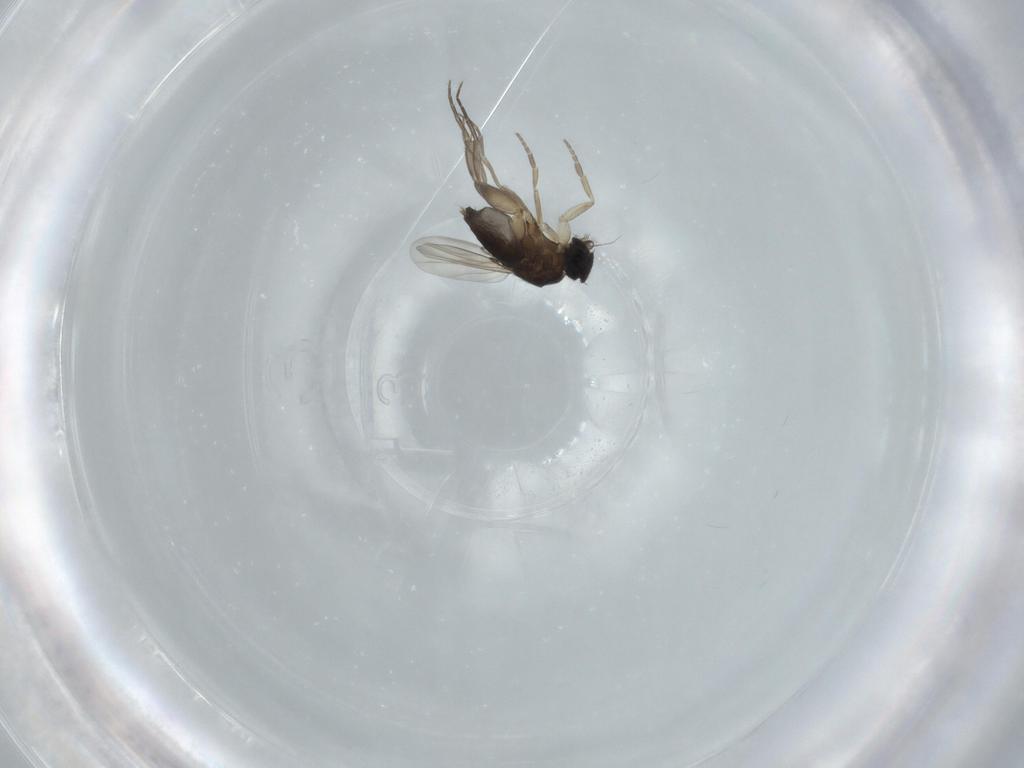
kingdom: Animalia
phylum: Arthropoda
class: Insecta
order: Diptera
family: Phoridae
